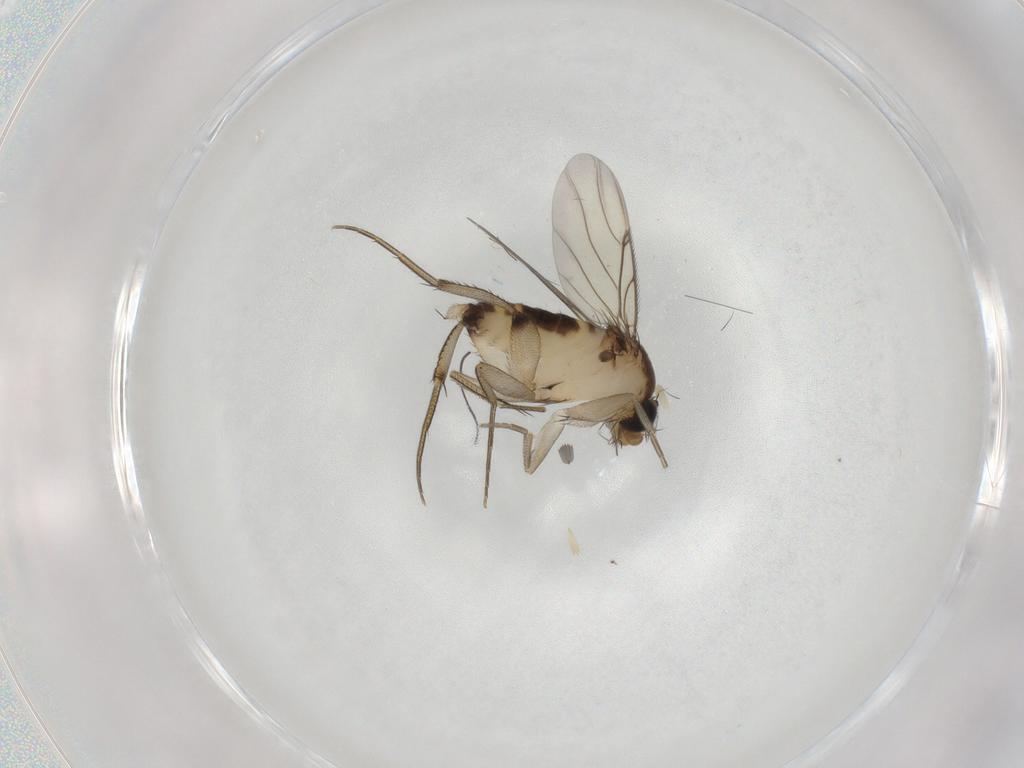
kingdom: Animalia
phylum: Arthropoda
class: Insecta
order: Diptera
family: Phoridae
